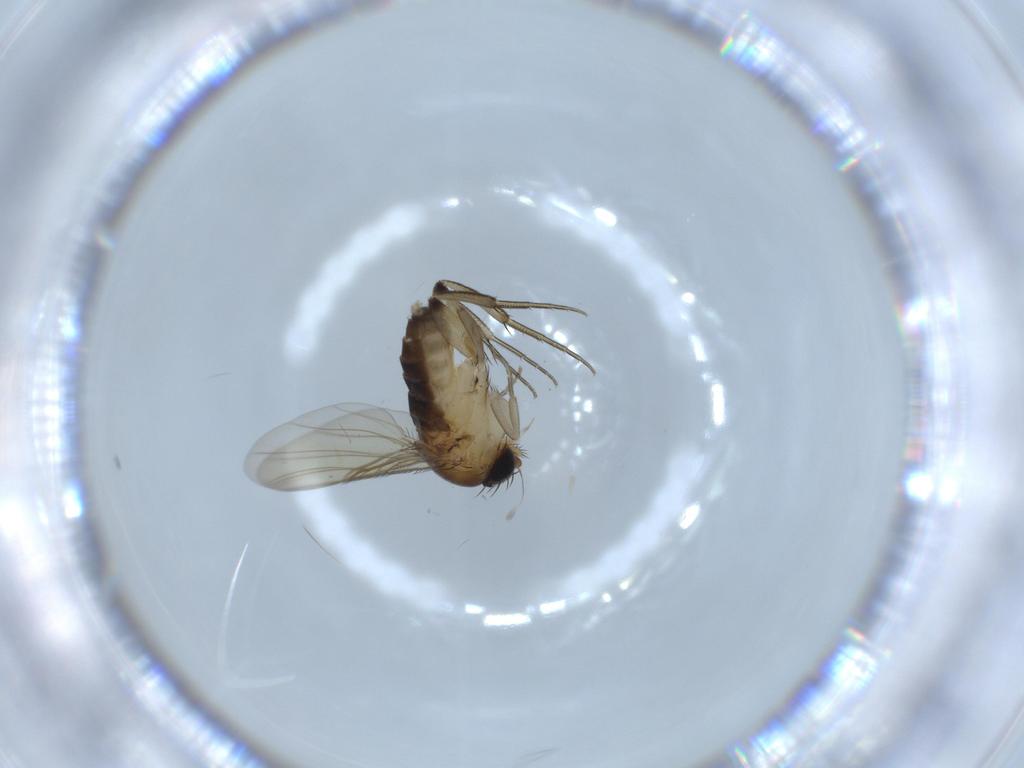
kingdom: Animalia
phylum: Arthropoda
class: Insecta
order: Diptera
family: Phoridae
